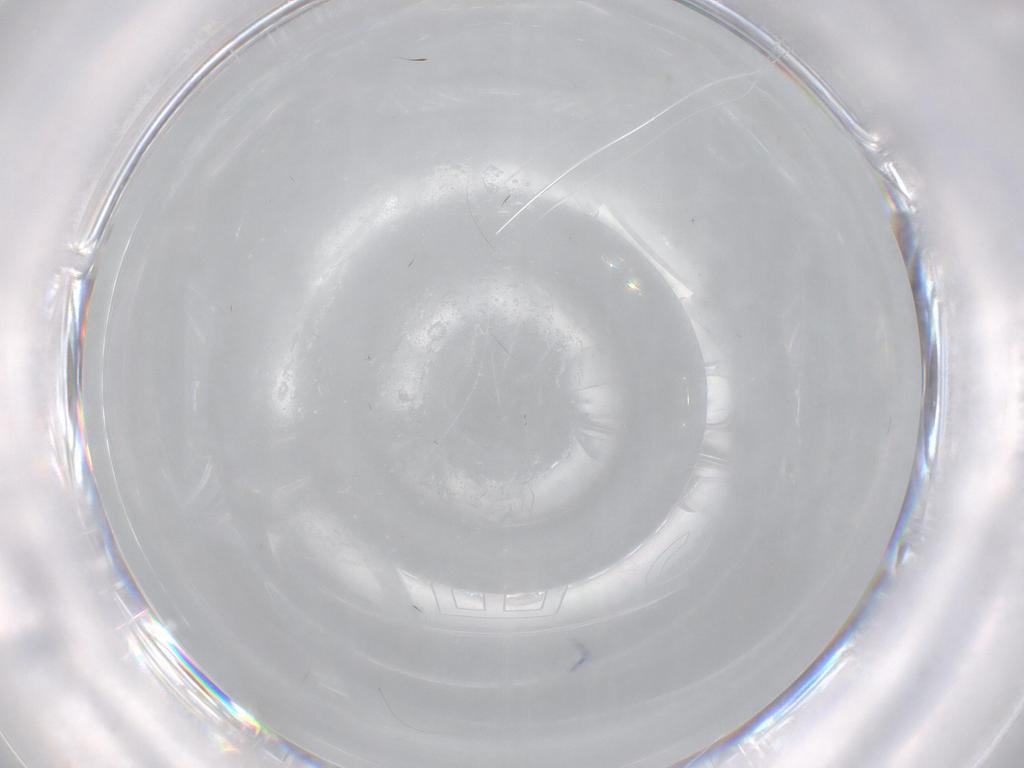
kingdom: Animalia
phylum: Arthropoda
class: Insecta
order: Diptera
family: Sciaridae
